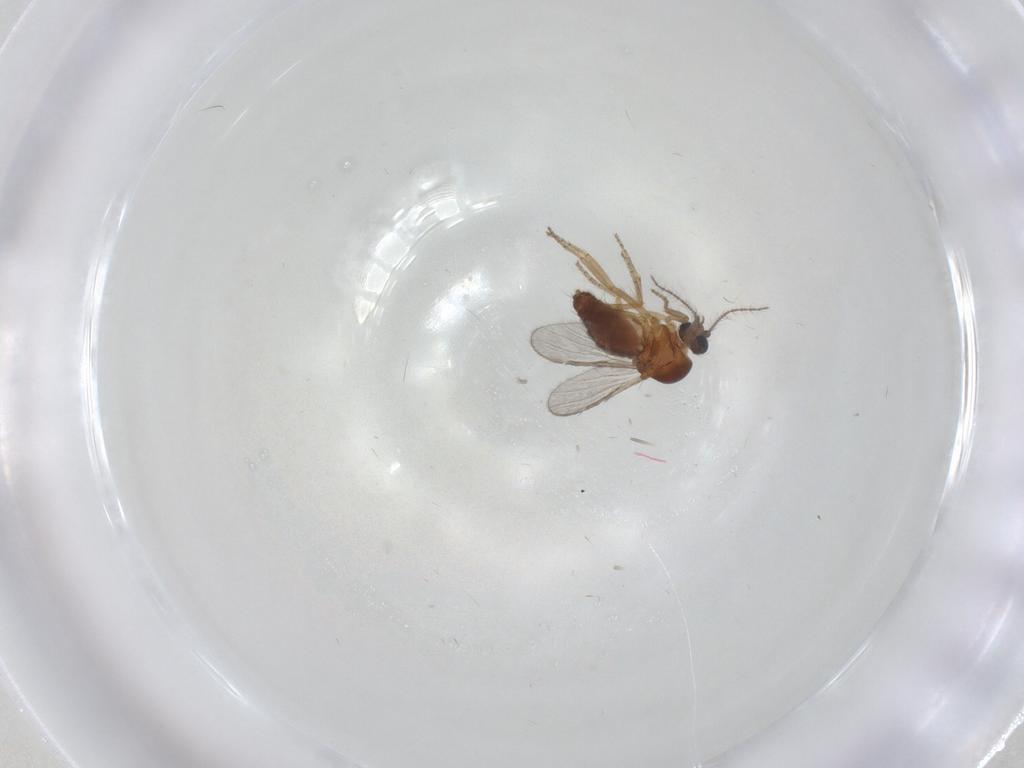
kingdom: Animalia
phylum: Arthropoda
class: Insecta
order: Diptera
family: Ceratopogonidae
